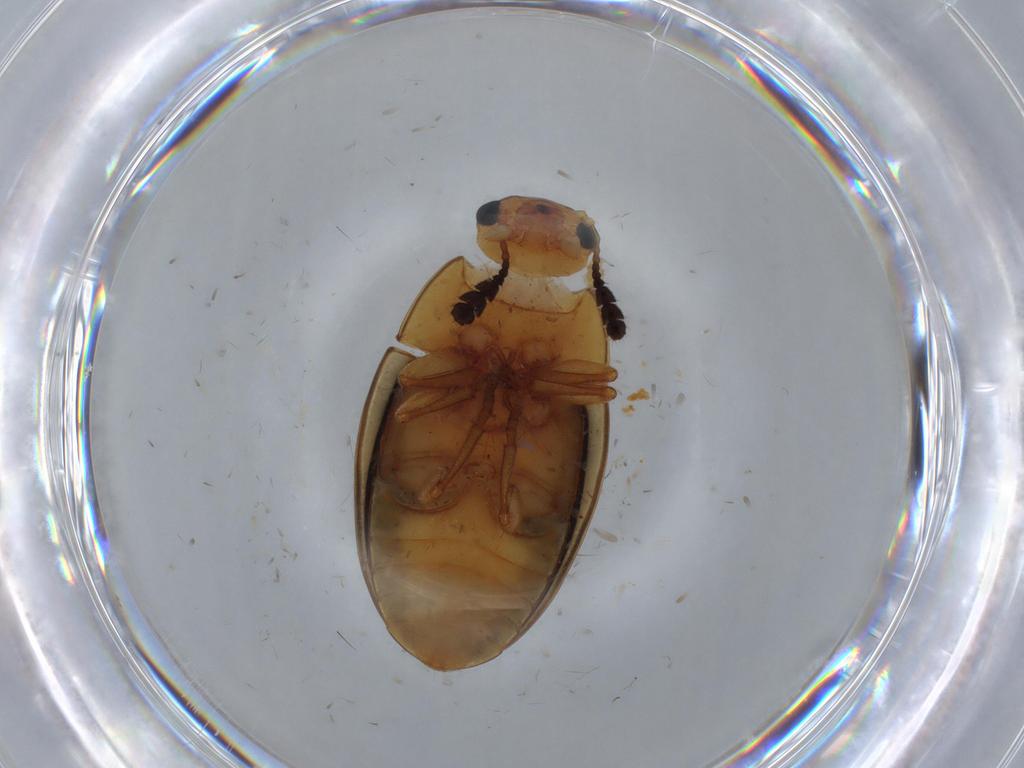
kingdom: Animalia
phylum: Arthropoda
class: Insecta
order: Coleoptera
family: Erotylidae
